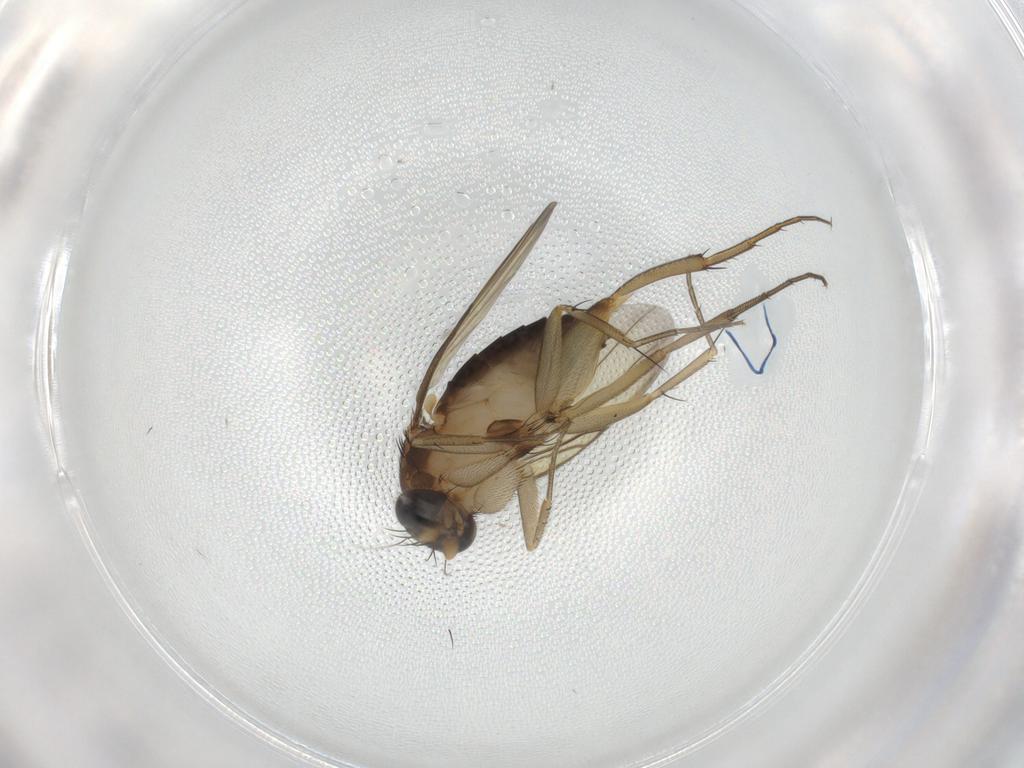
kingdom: Animalia
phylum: Arthropoda
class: Insecta
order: Diptera
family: Phoridae
